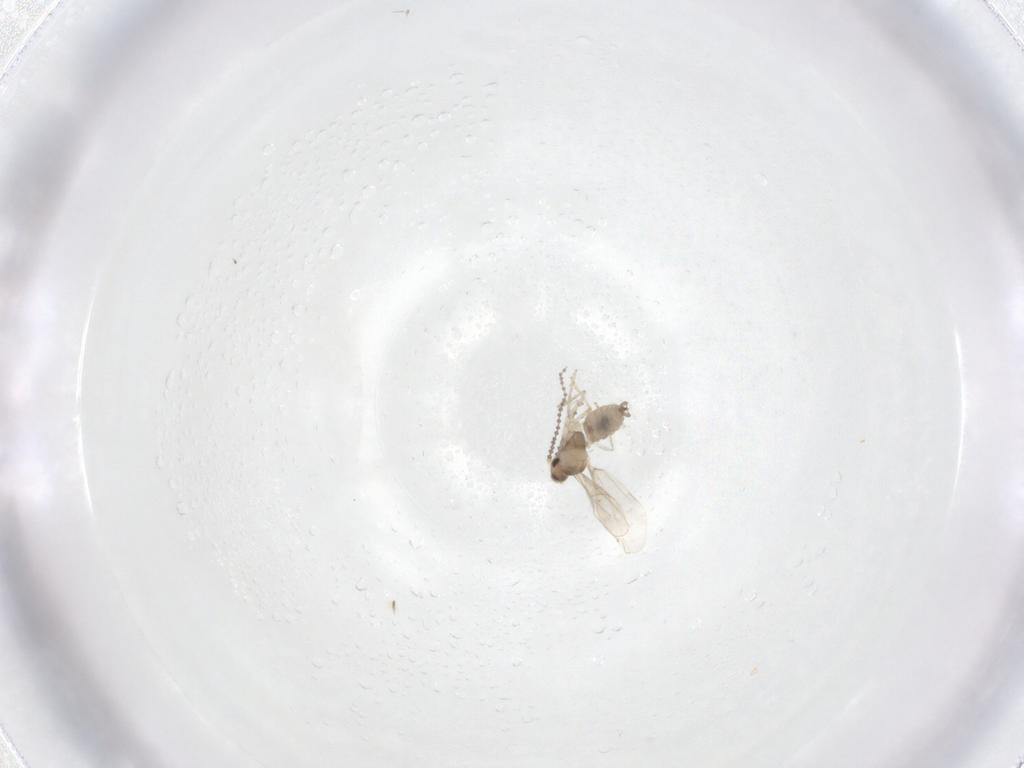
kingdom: Animalia
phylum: Arthropoda
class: Insecta
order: Diptera
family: Cecidomyiidae
